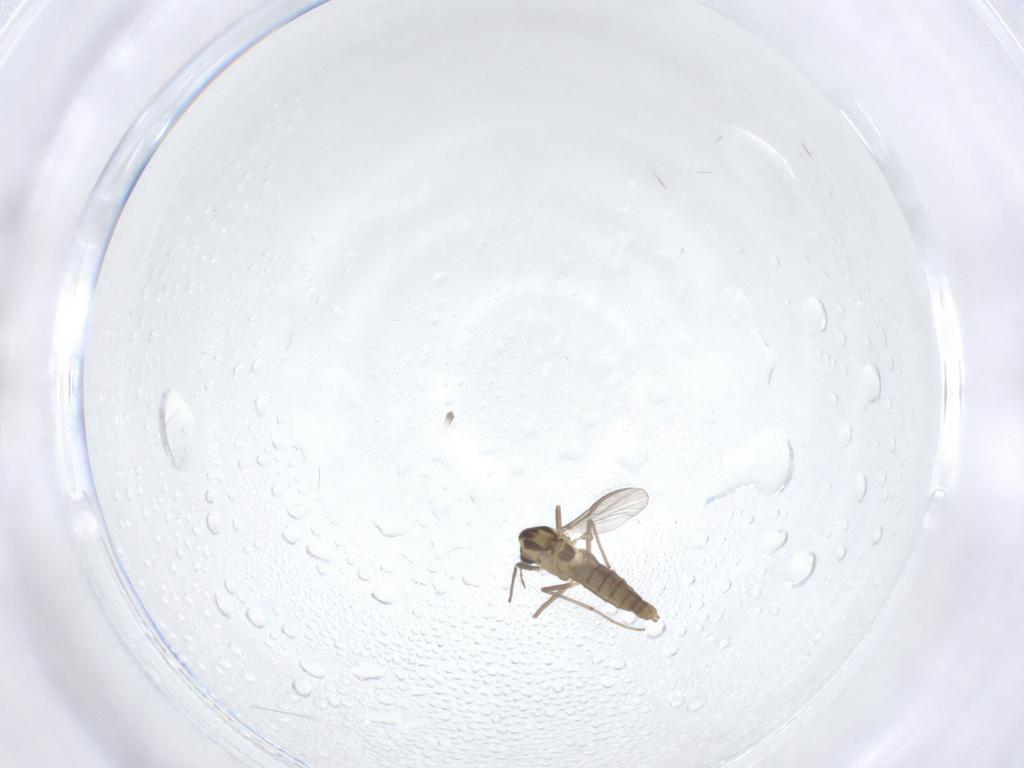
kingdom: Animalia
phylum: Arthropoda
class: Insecta
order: Diptera
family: Chironomidae
